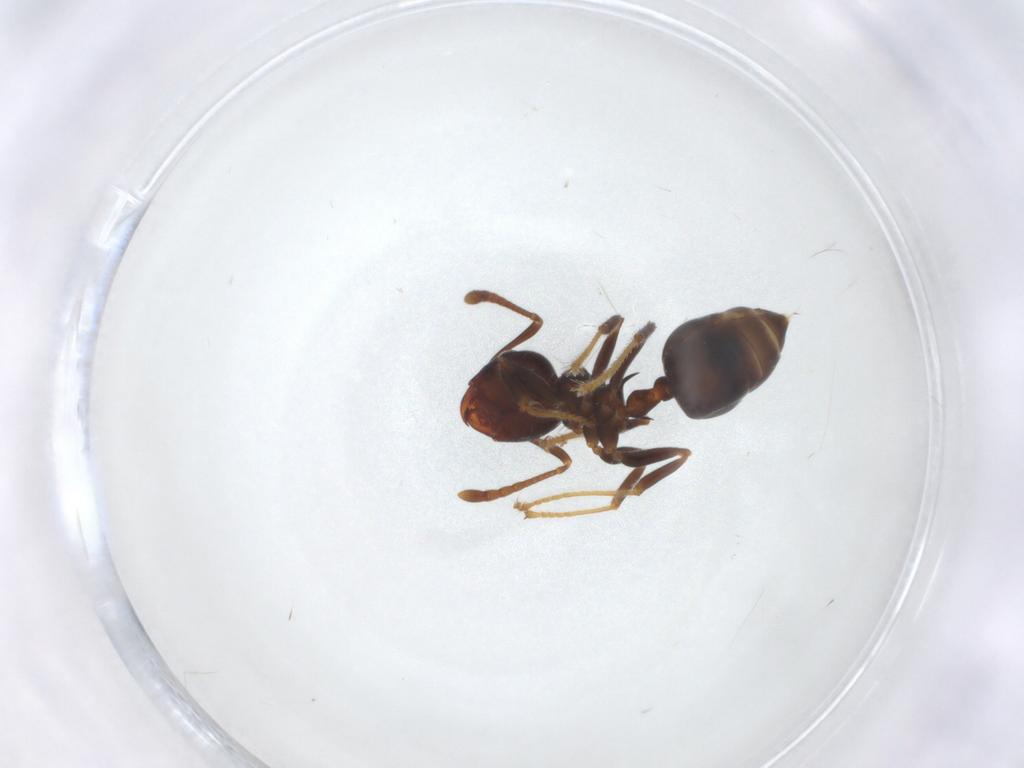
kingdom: Animalia
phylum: Arthropoda
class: Insecta
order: Hymenoptera
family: Formicidae
